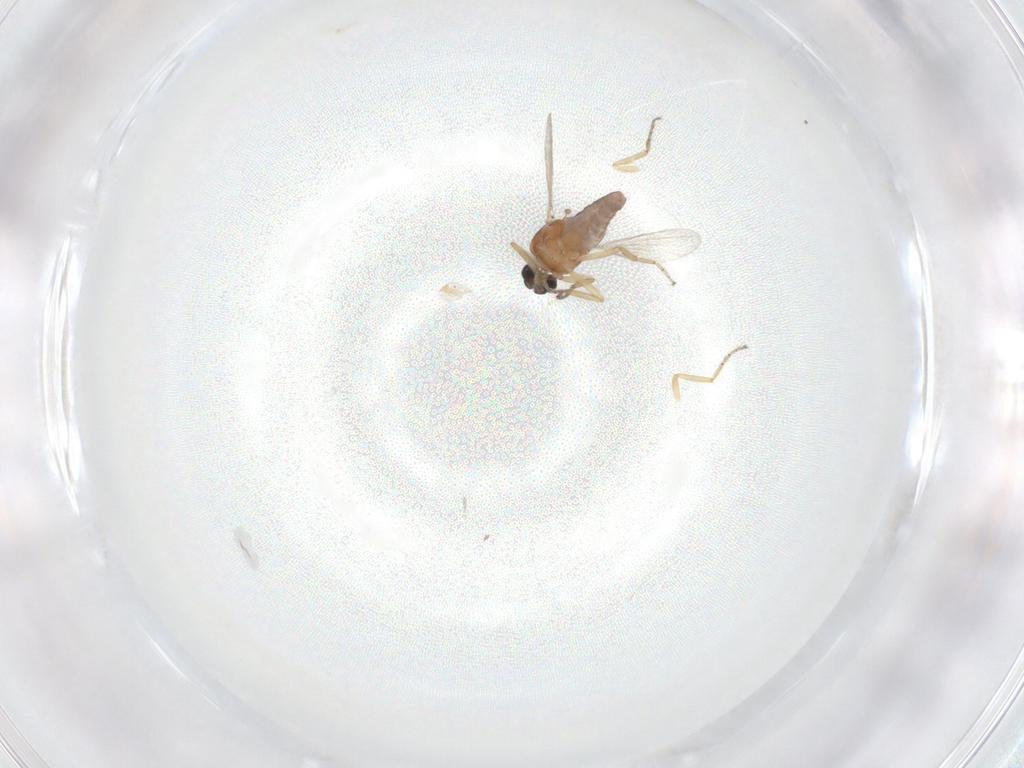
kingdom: Animalia
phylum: Arthropoda
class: Insecta
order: Diptera
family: Ceratopogonidae
